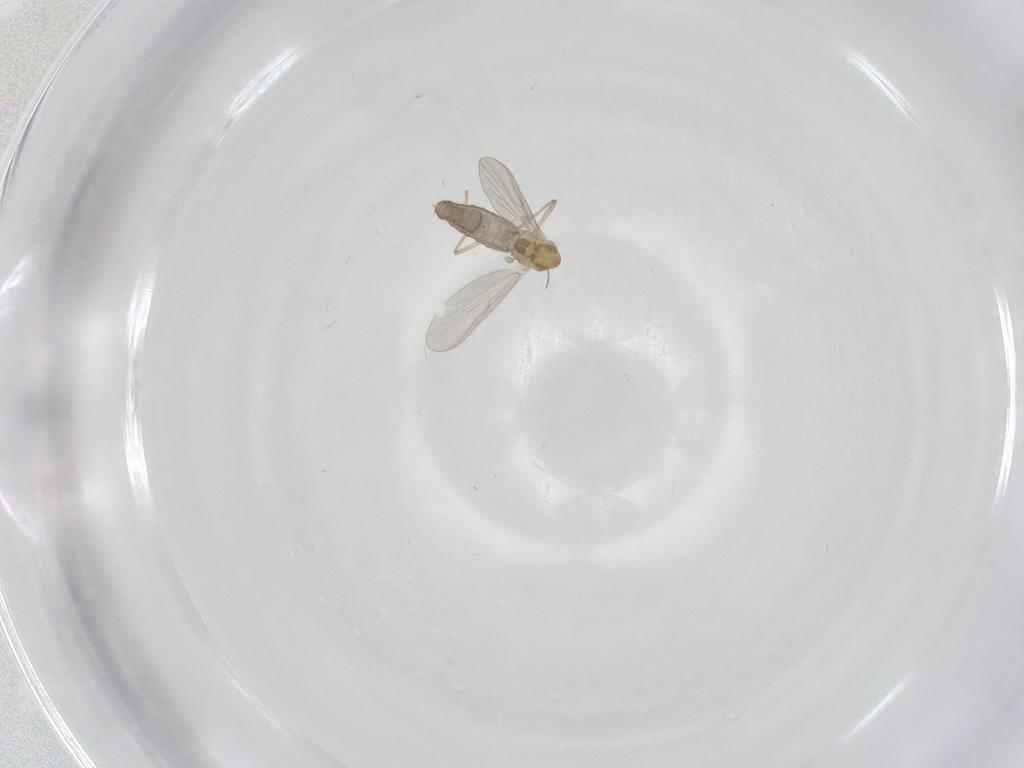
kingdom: Animalia
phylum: Arthropoda
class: Insecta
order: Diptera
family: Chironomidae
